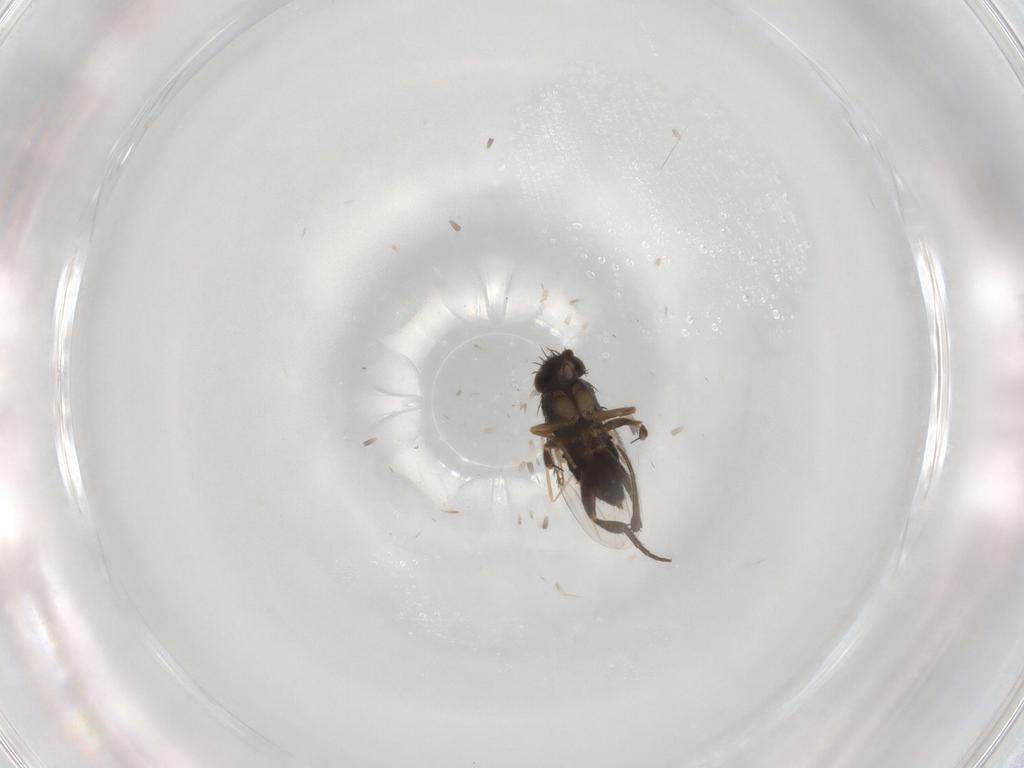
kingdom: Animalia
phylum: Arthropoda
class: Insecta
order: Diptera
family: Phoridae
